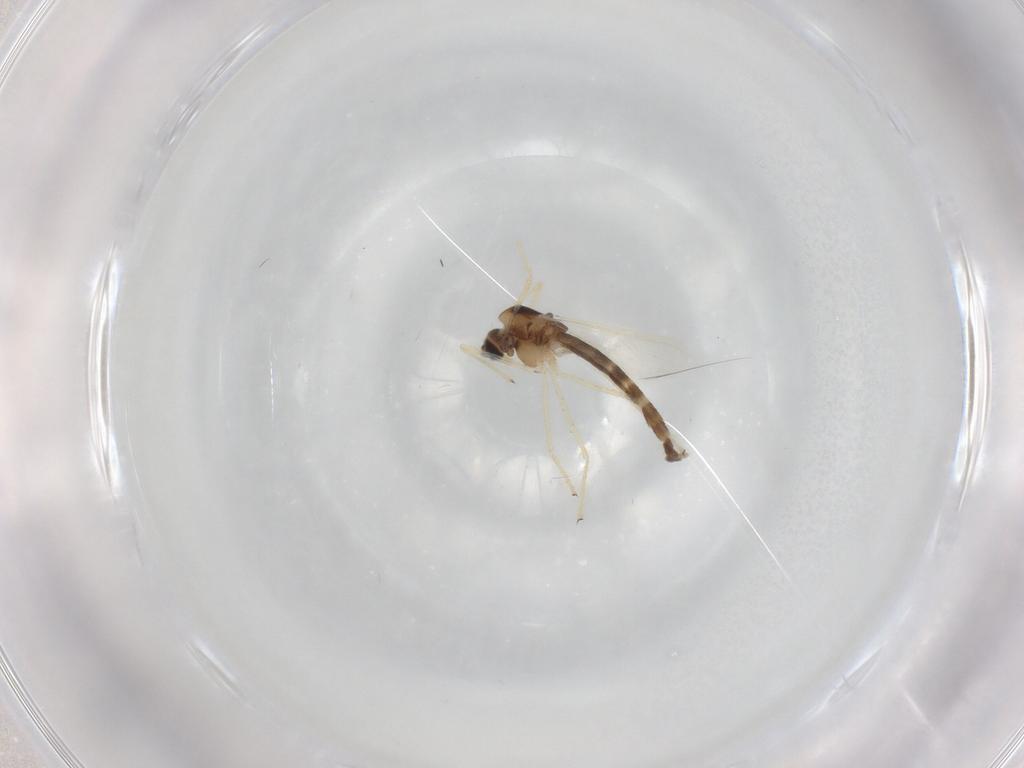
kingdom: Animalia
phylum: Arthropoda
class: Insecta
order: Diptera
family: Chironomidae
